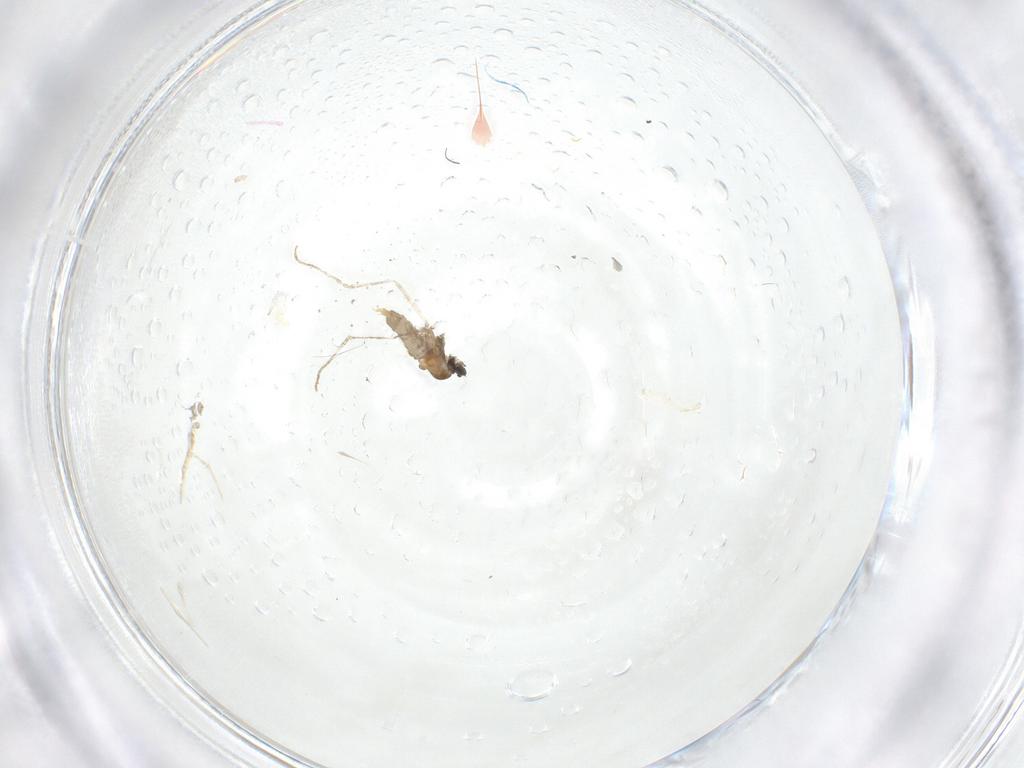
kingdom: Animalia
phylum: Arthropoda
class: Insecta
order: Diptera
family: Cecidomyiidae
